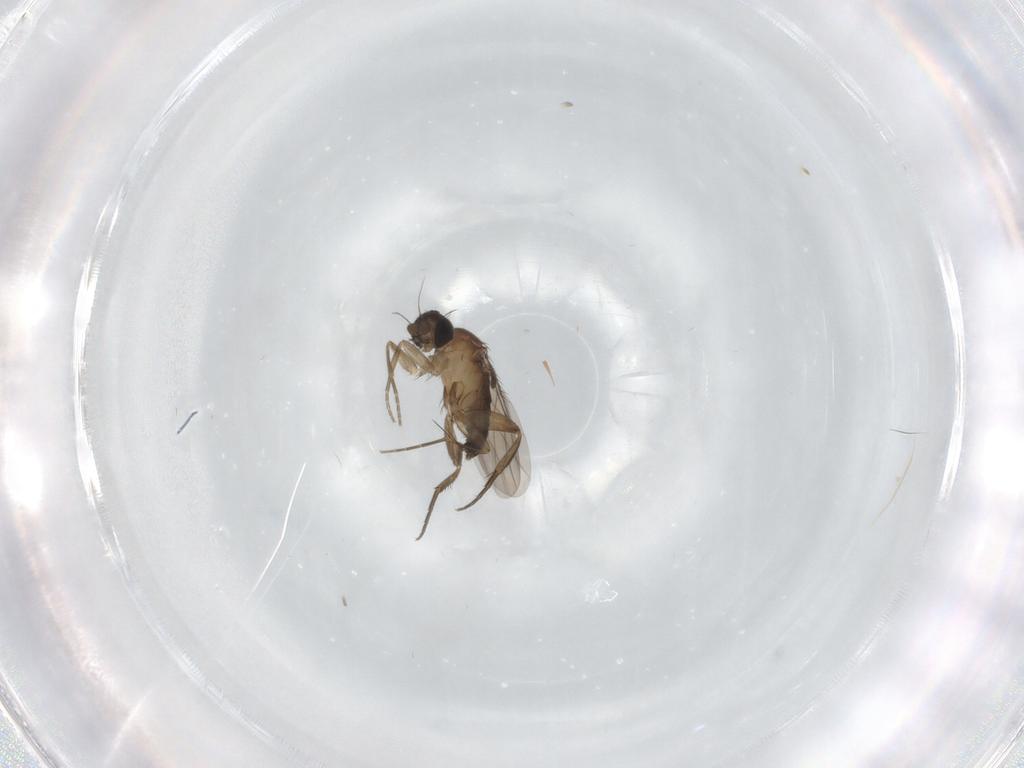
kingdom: Animalia
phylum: Arthropoda
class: Insecta
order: Diptera
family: Phoridae
